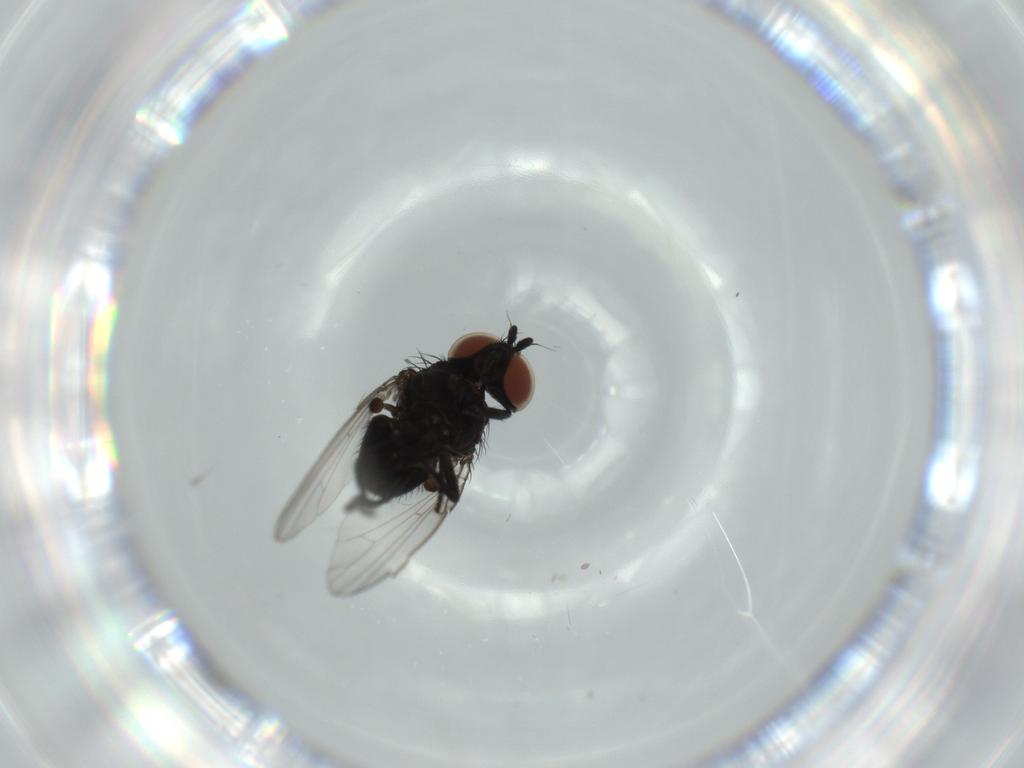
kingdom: Animalia
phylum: Arthropoda
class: Insecta
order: Diptera
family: Milichiidae
